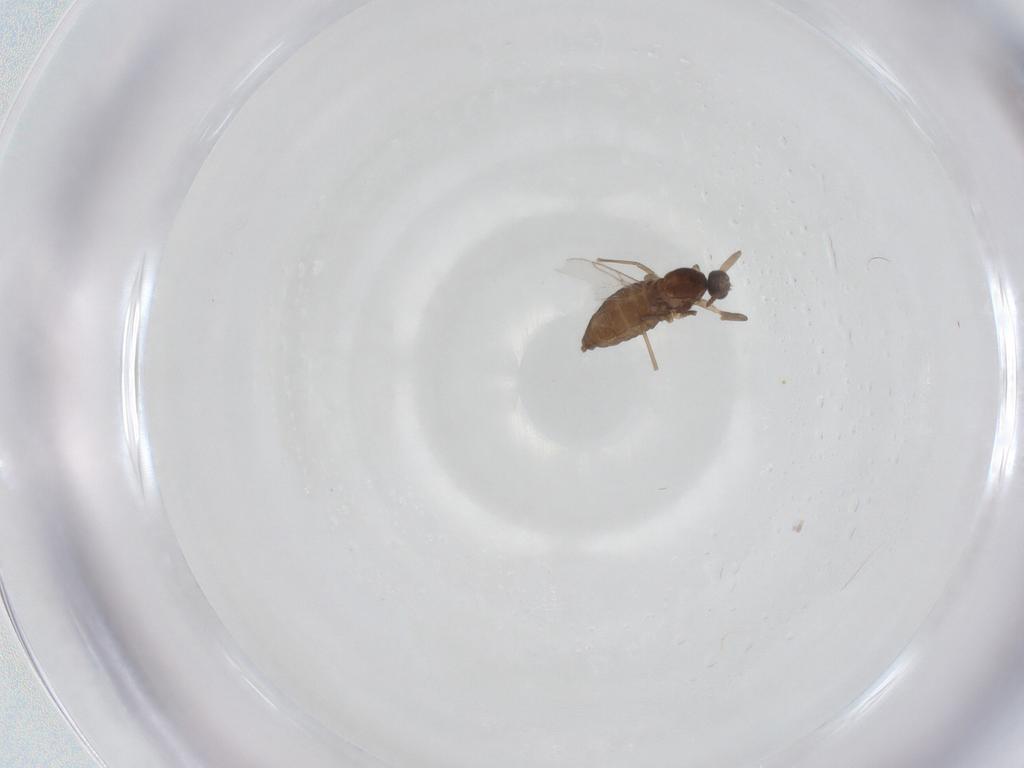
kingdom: Animalia
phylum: Arthropoda
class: Insecta
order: Diptera
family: Cecidomyiidae
